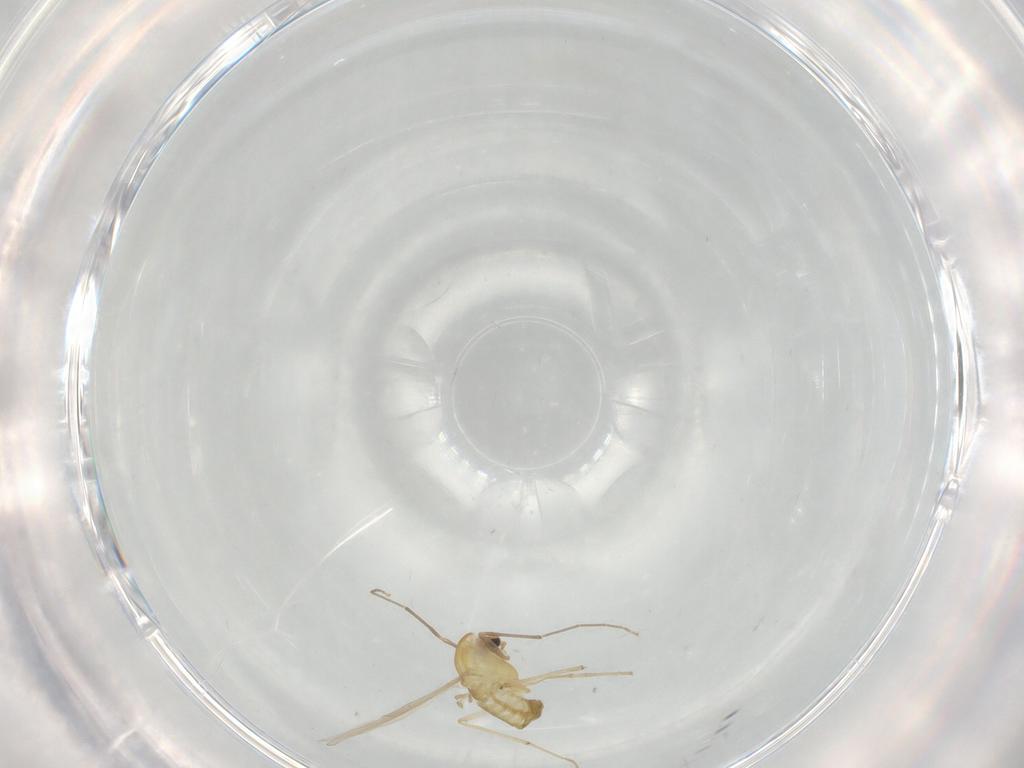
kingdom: Animalia
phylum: Arthropoda
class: Insecta
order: Diptera
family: Chironomidae
